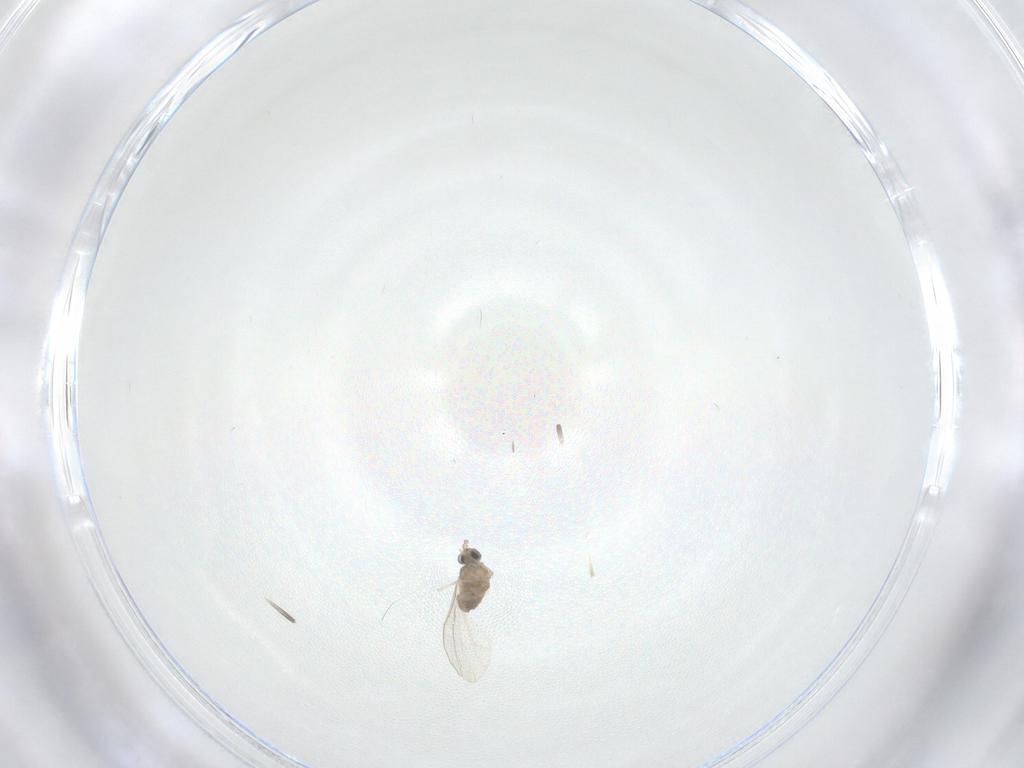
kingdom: Animalia
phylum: Arthropoda
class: Insecta
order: Diptera
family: Cecidomyiidae
